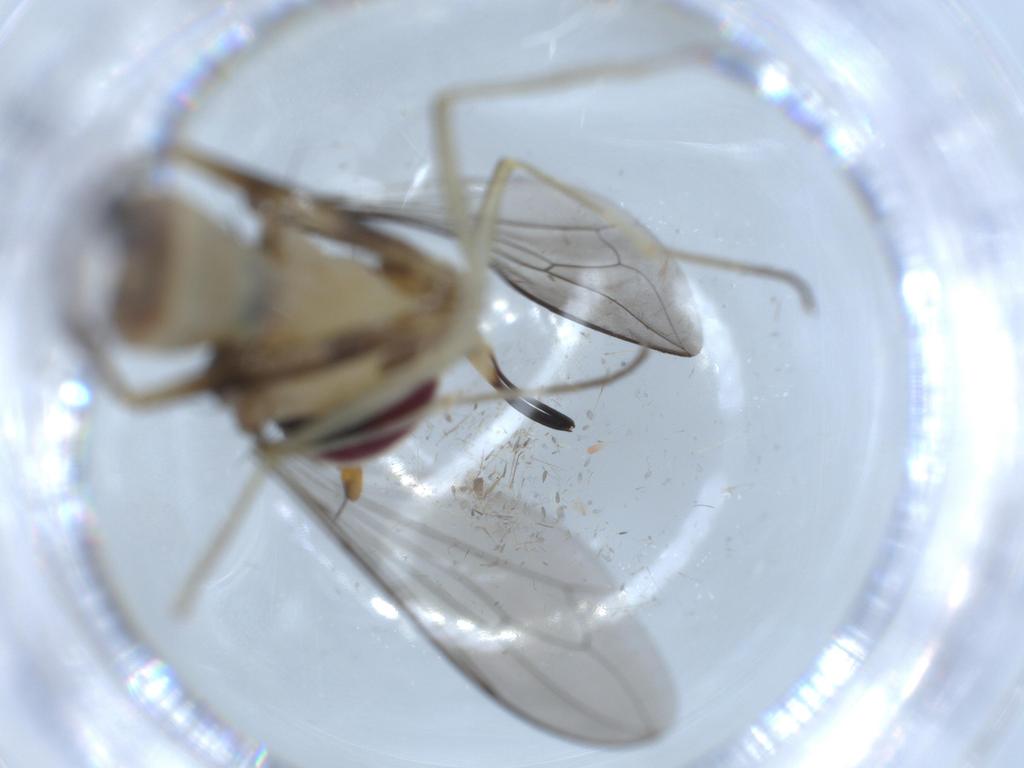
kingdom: Animalia
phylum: Arthropoda
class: Insecta
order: Diptera
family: Conopidae
